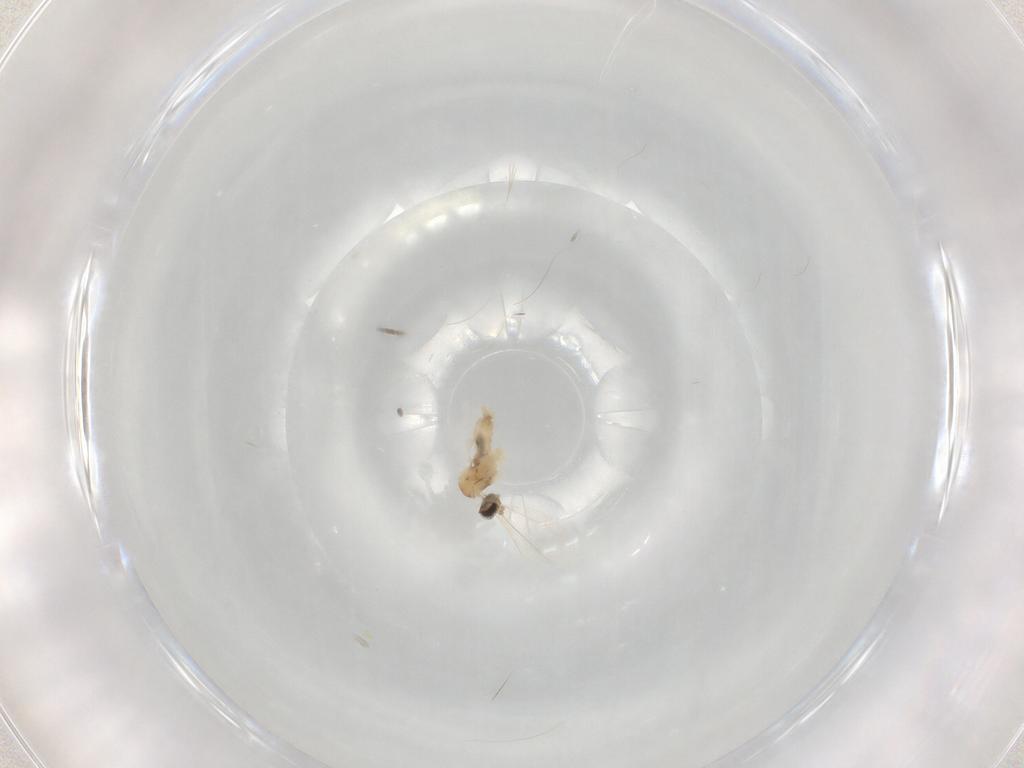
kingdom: Animalia
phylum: Arthropoda
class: Insecta
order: Diptera
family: Cecidomyiidae
